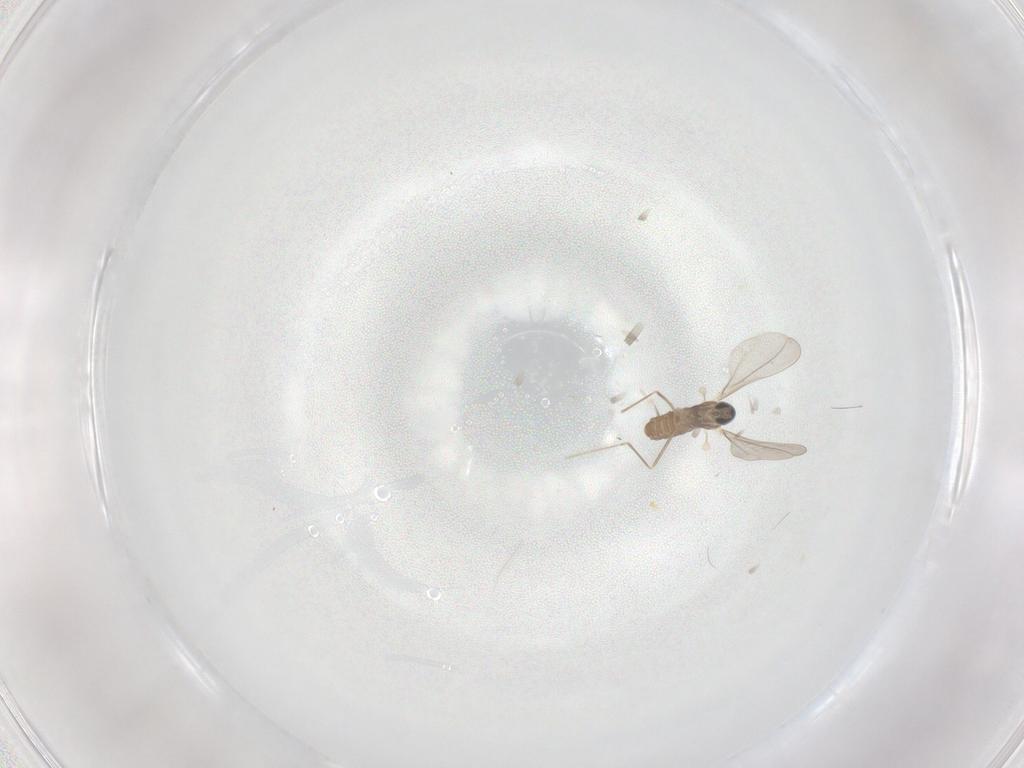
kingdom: Animalia
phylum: Arthropoda
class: Insecta
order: Diptera
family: Cecidomyiidae
